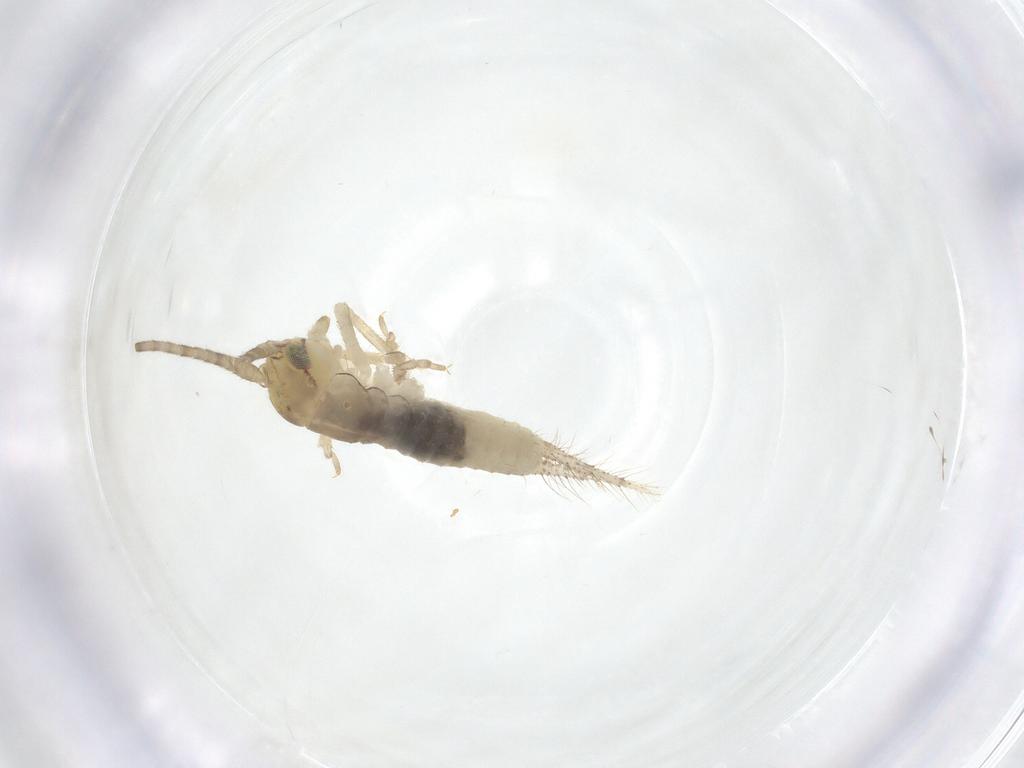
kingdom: Animalia
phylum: Arthropoda
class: Insecta
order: Orthoptera
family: Gryllidae
